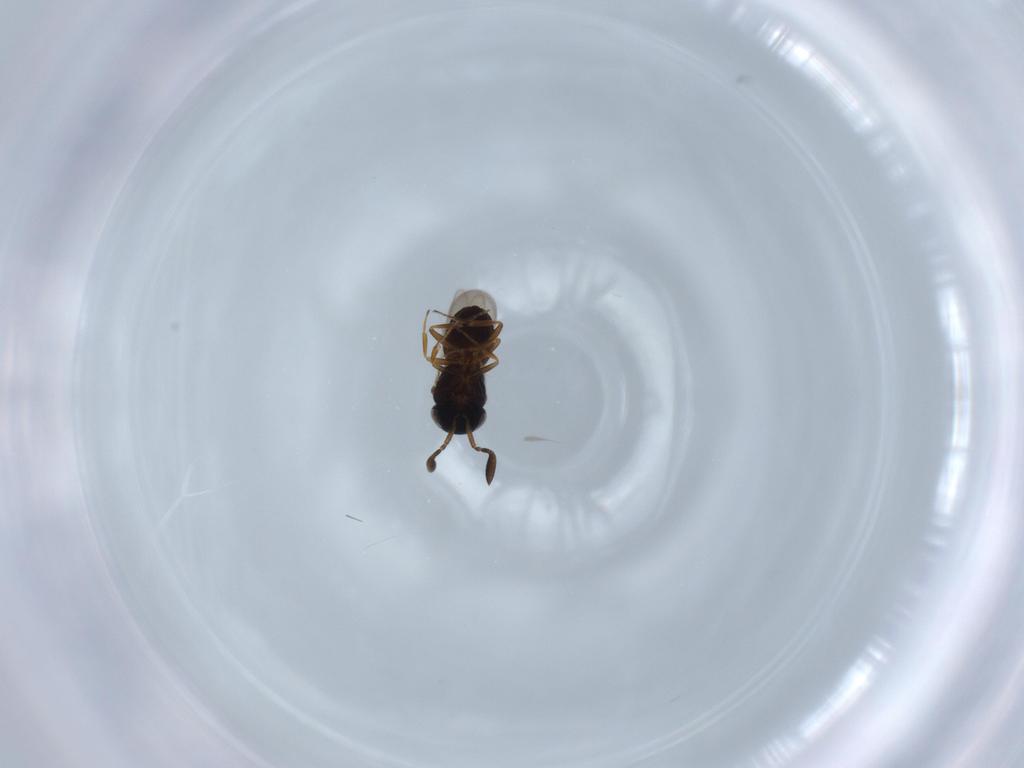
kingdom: Animalia
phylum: Arthropoda
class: Insecta
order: Hymenoptera
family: Scelionidae
